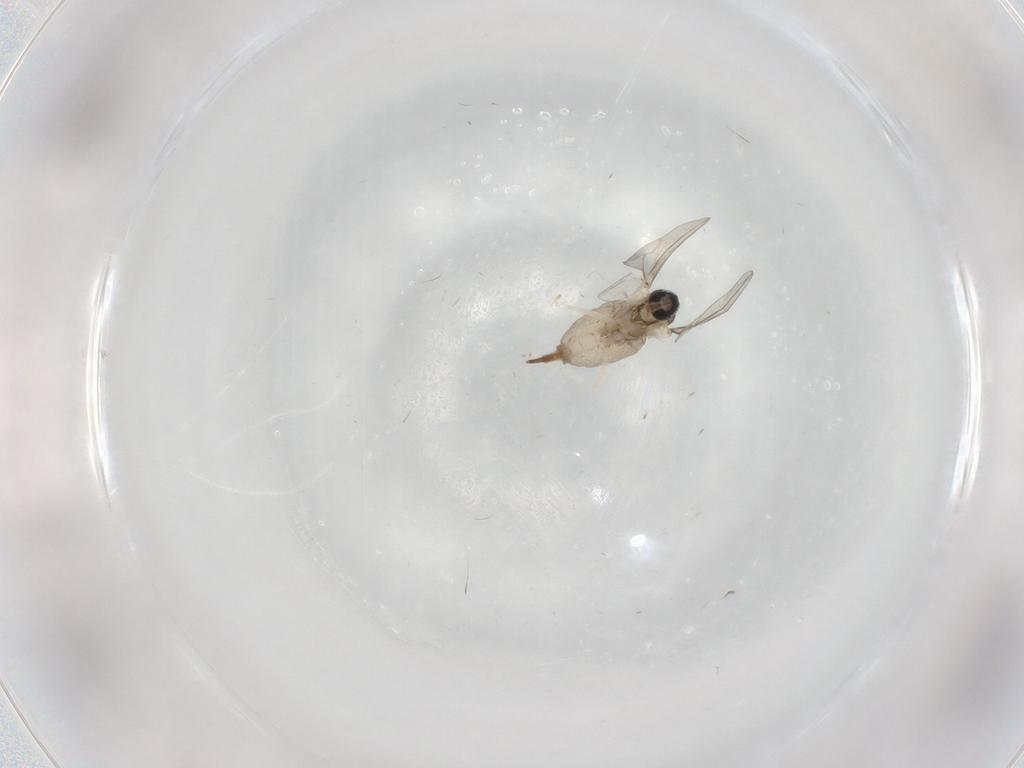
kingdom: Animalia
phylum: Arthropoda
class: Insecta
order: Diptera
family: Cecidomyiidae
